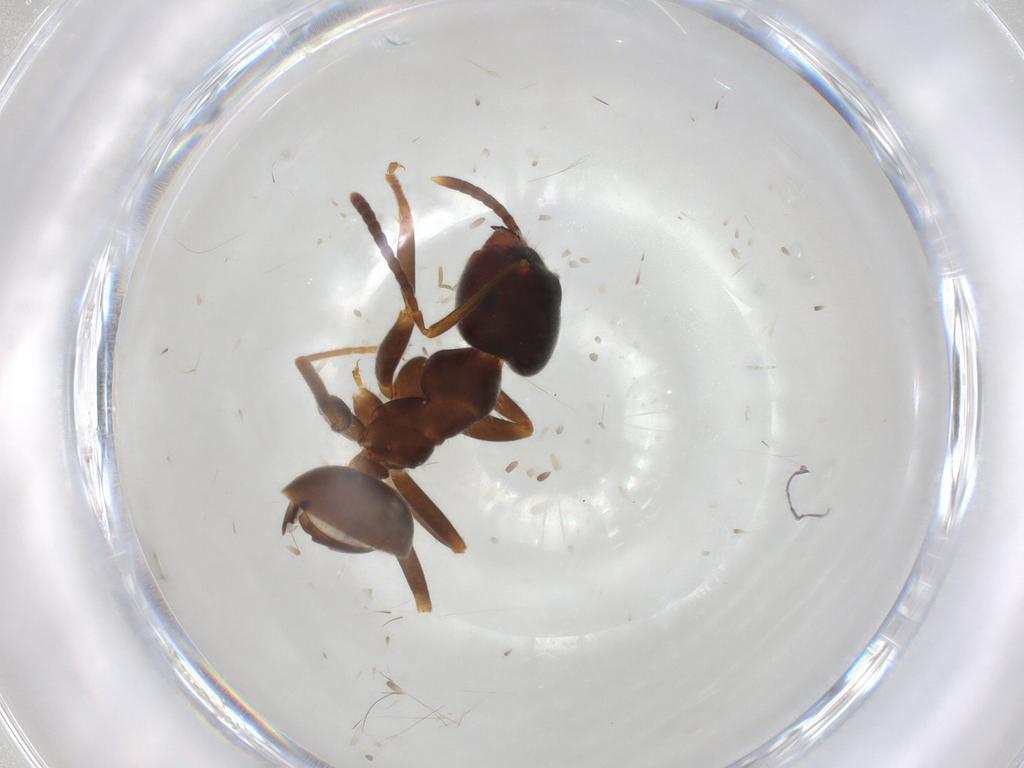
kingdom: Animalia
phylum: Arthropoda
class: Insecta
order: Hymenoptera
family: Formicidae
